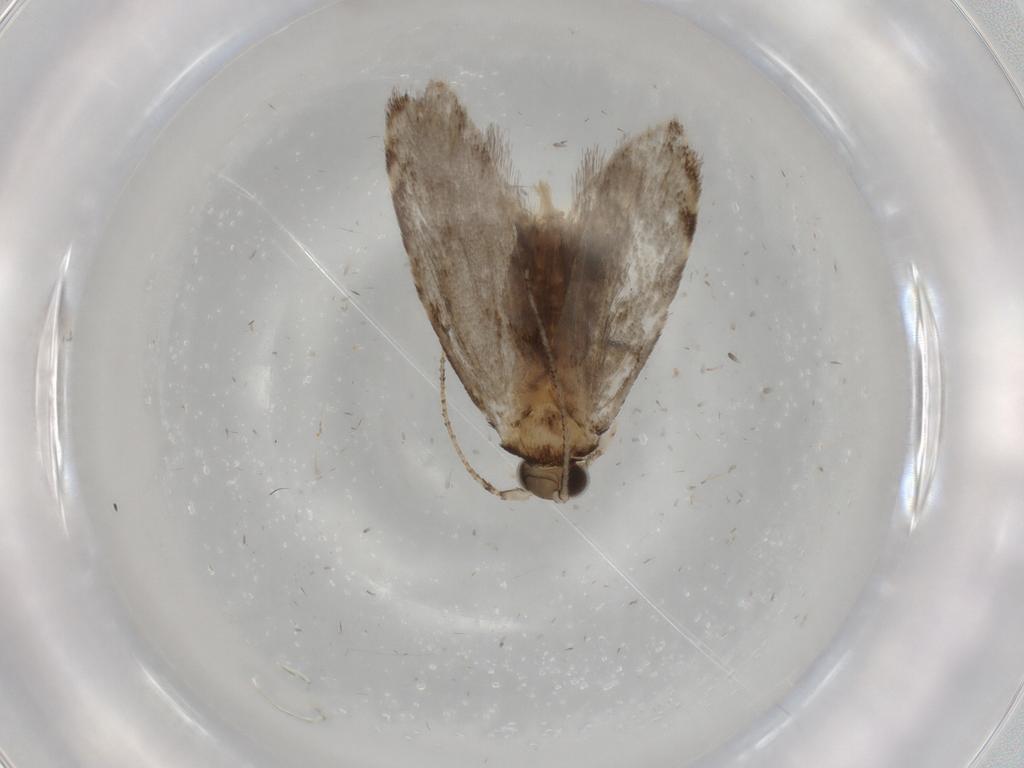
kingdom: Animalia
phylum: Arthropoda
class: Insecta
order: Lepidoptera
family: Tineidae
